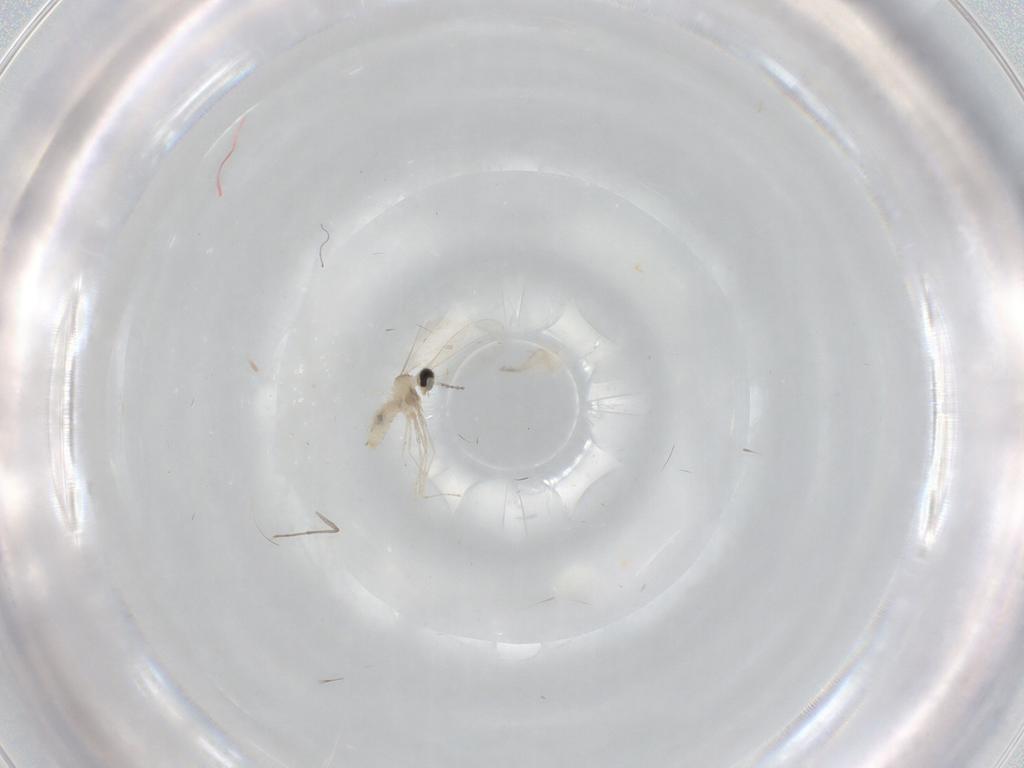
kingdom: Animalia
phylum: Arthropoda
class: Insecta
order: Diptera
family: Cecidomyiidae
